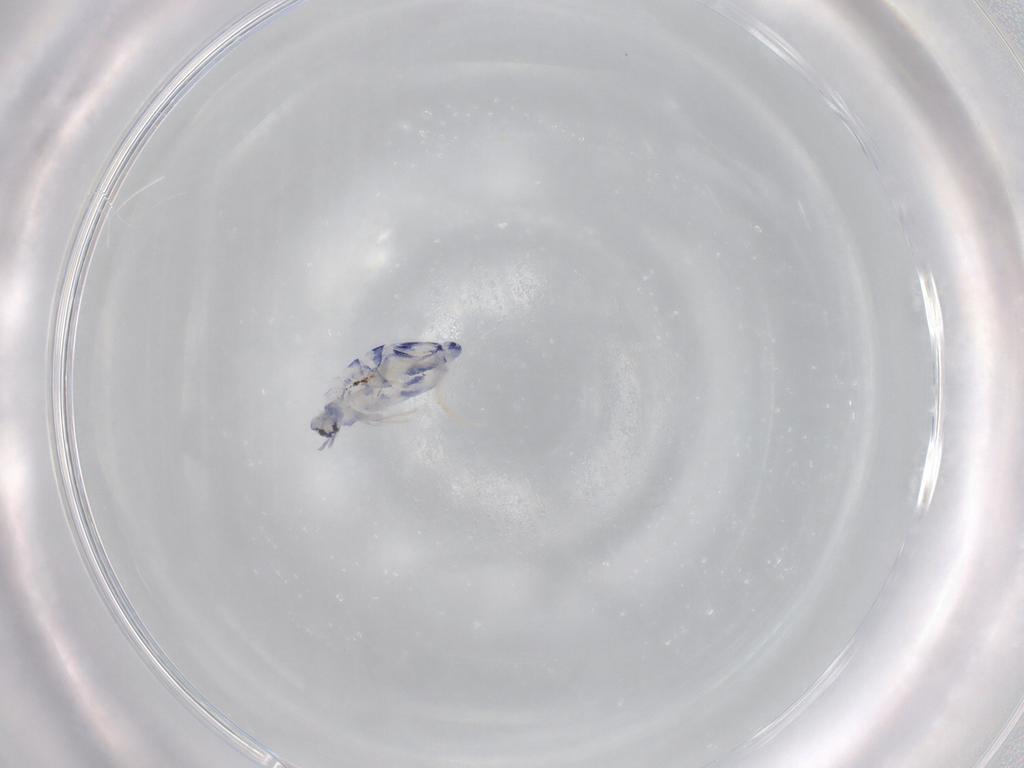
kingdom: Animalia
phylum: Arthropoda
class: Collembola
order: Entomobryomorpha
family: Entomobryidae
